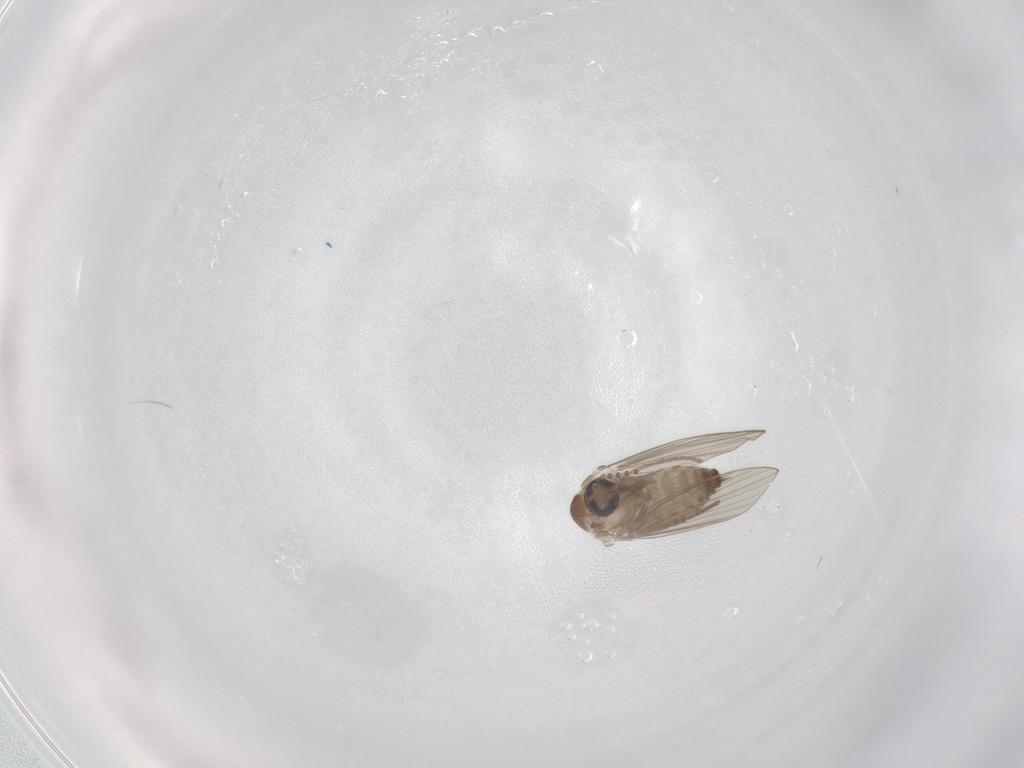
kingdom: Animalia
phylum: Arthropoda
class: Insecta
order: Diptera
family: Psychodidae
